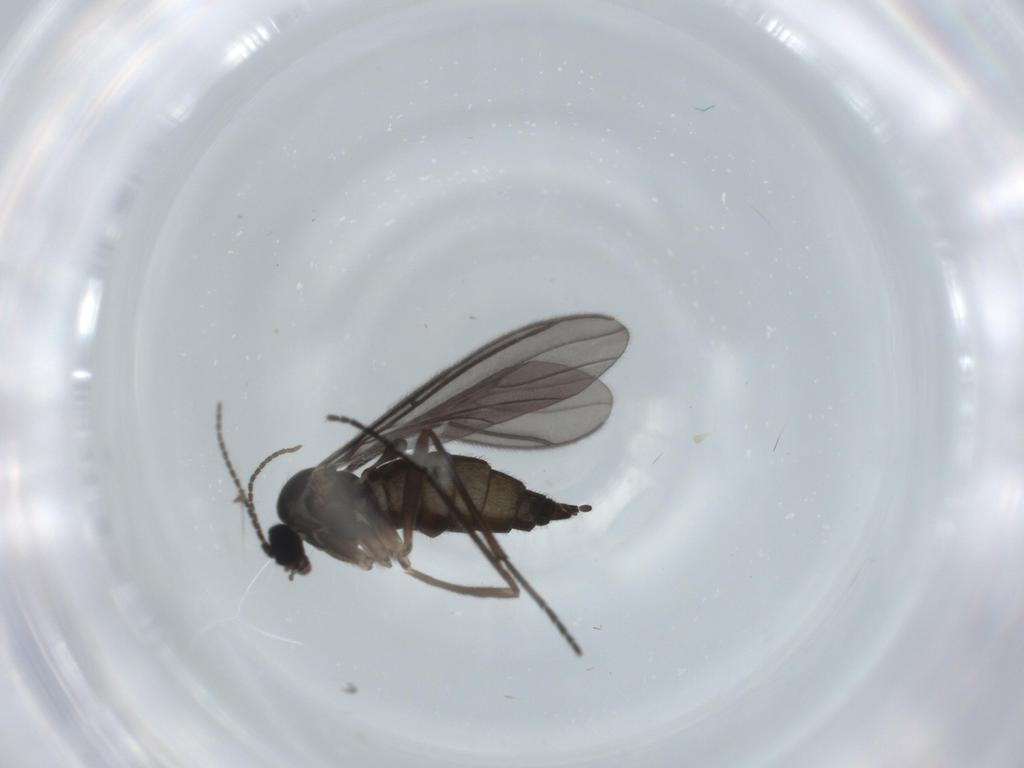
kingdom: Animalia
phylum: Arthropoda
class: Insecta
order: Diptera
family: Sciaridae
